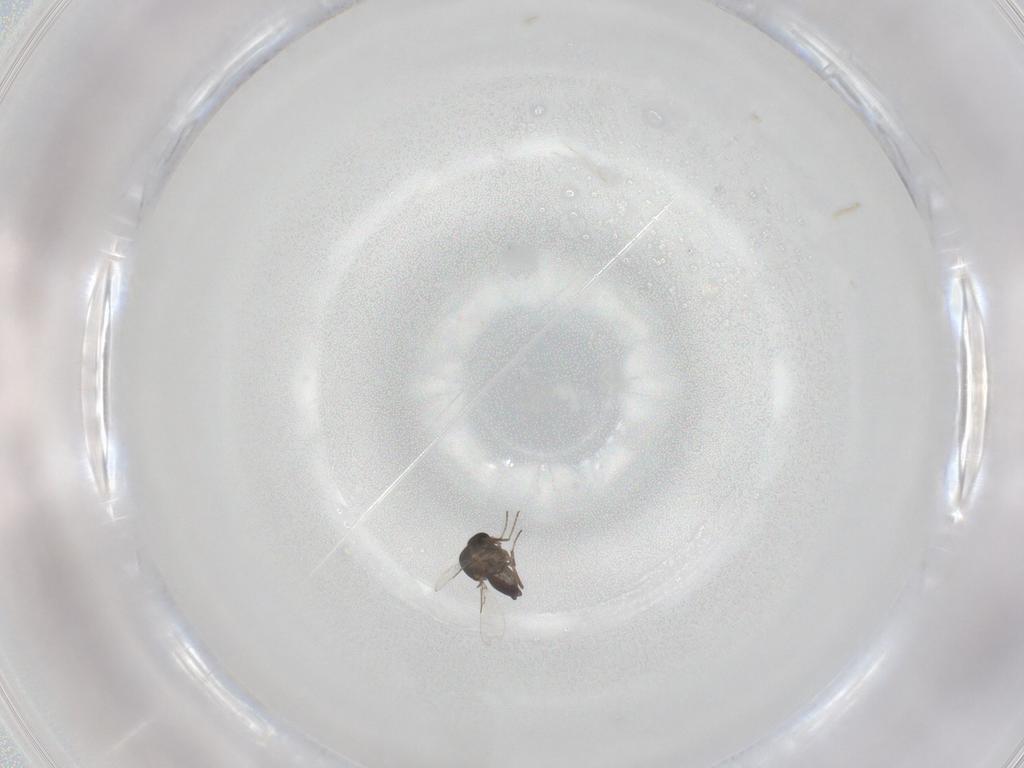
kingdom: Animalia
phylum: Arthropoda
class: Insecta
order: Diptera
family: Ceratopogonidae
